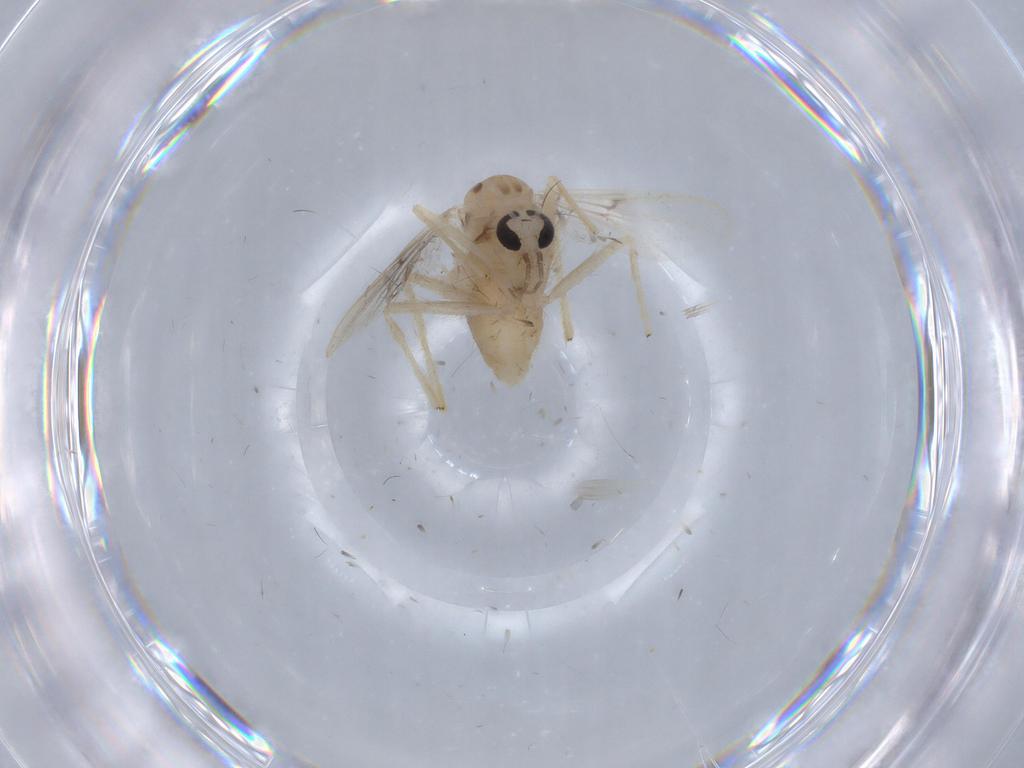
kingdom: Animalia
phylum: Arthropoda
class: Insecta
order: Diptera
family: Chironomidae
